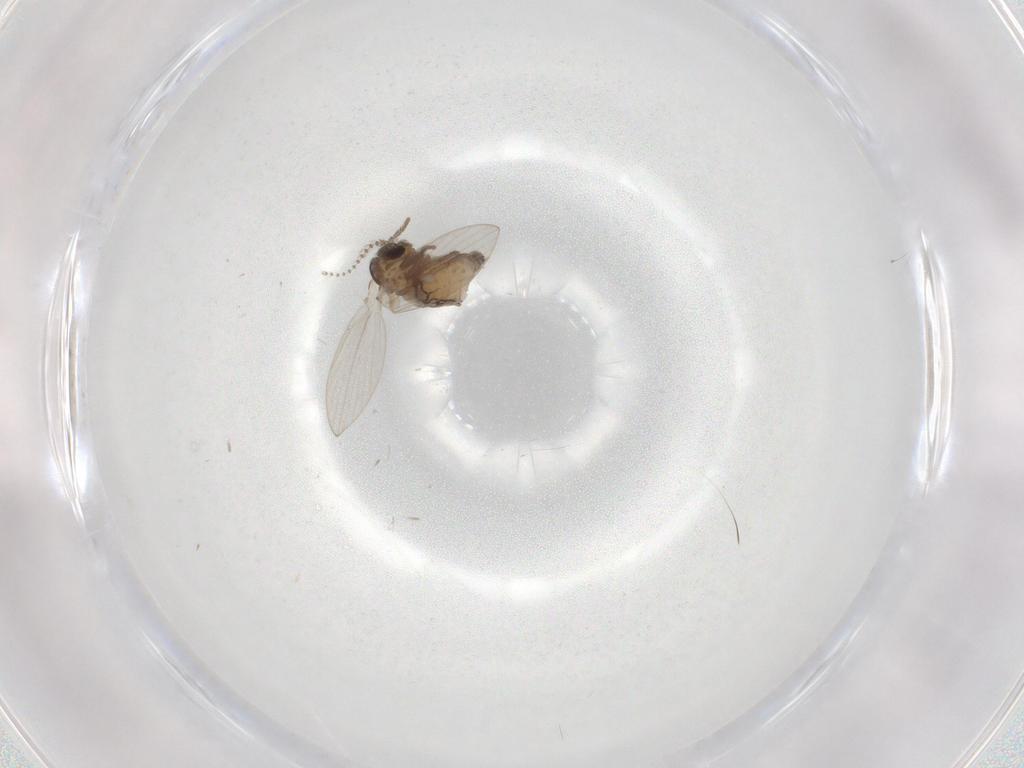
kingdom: Animalia
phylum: Arthropoda
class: Insecta
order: Diptera
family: Psychodidae
